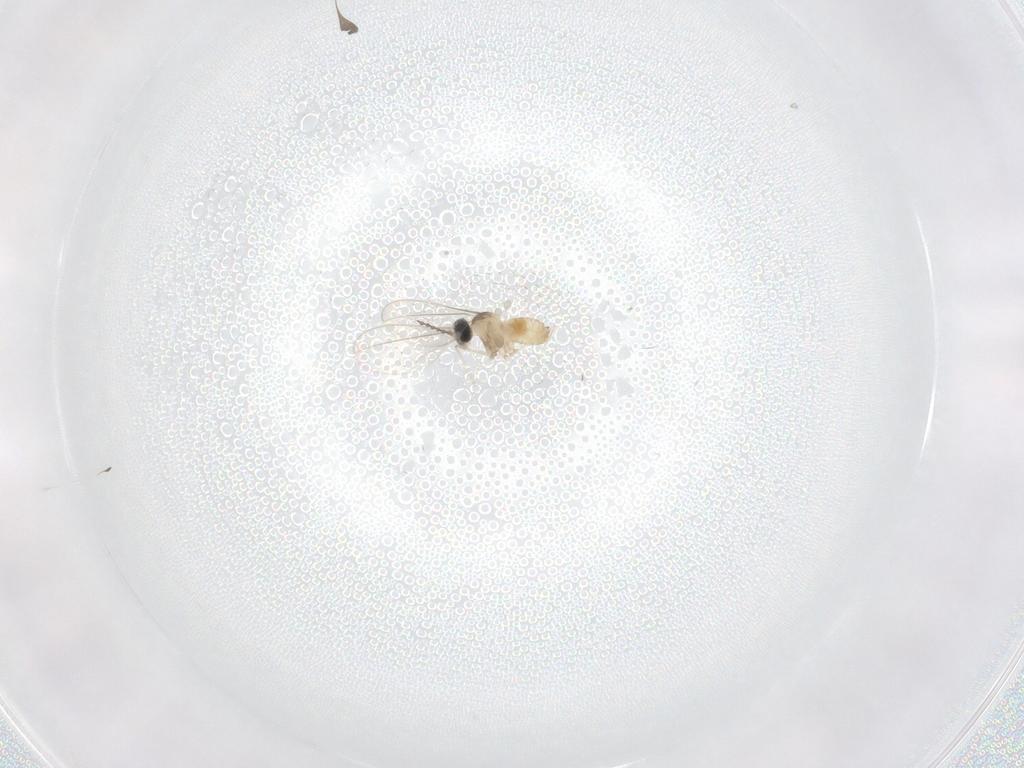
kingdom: Animalia
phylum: Arthropoda
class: Insecta
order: Diptera
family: Cecidomyiidae
